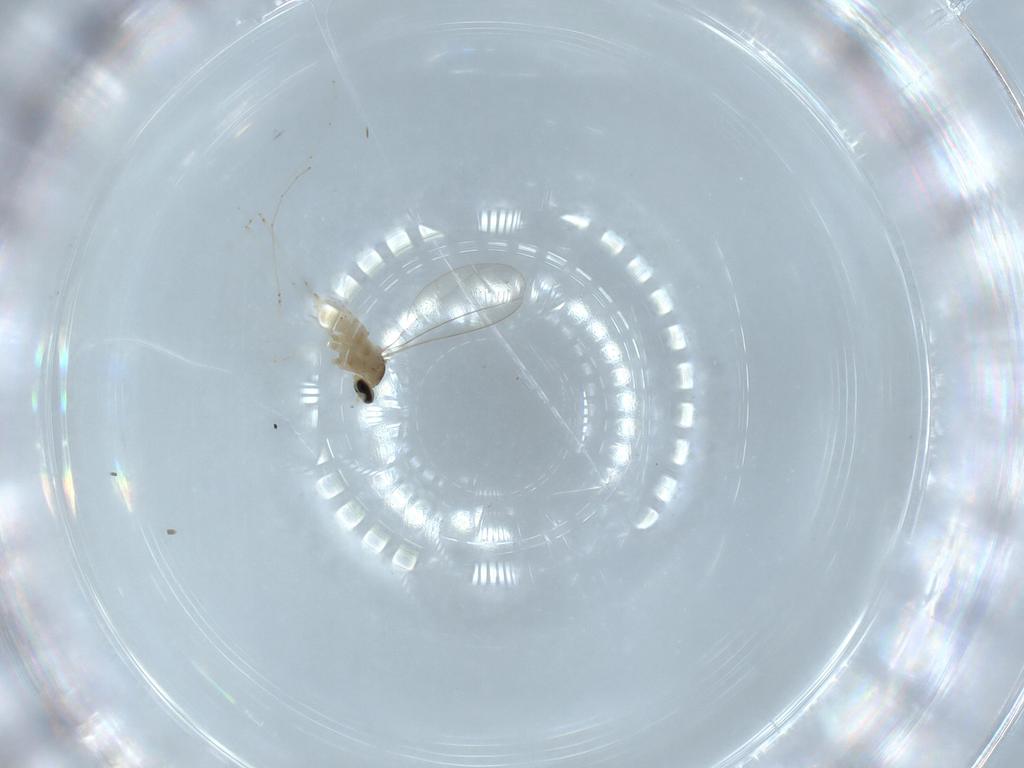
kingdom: Animalia
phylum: Arthropoda
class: Insecta
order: Diptera
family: Cecidomyiidae
